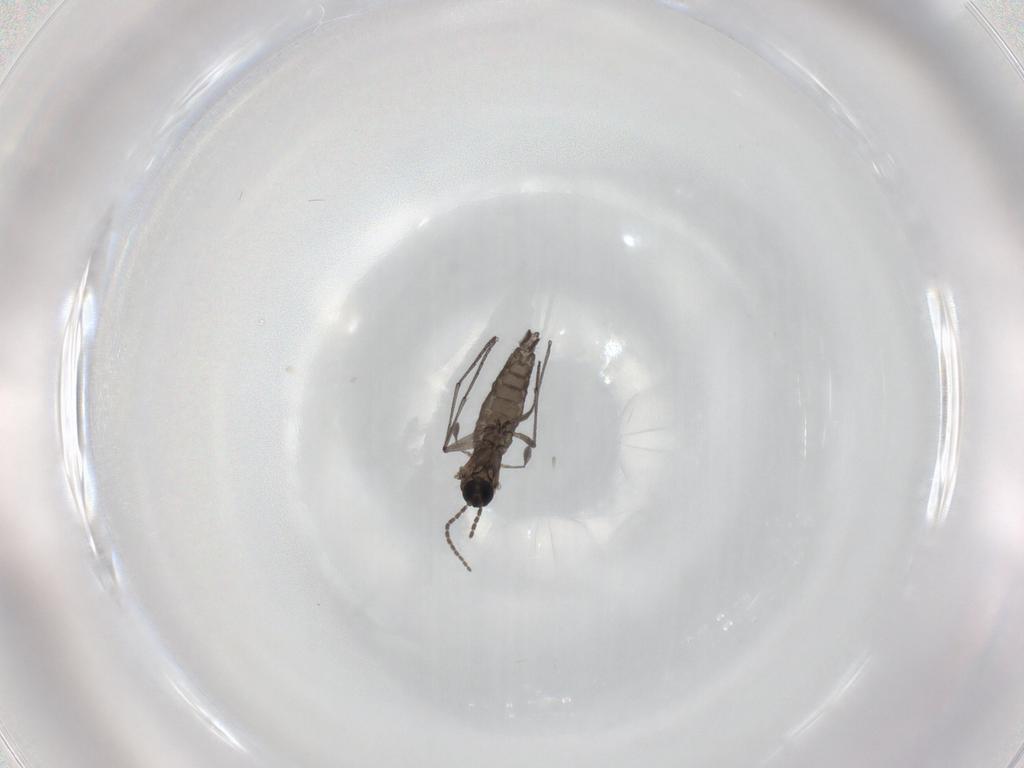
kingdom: Animalia
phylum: Arthropoda
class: Insecta
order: Diptera
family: Sciaridae
